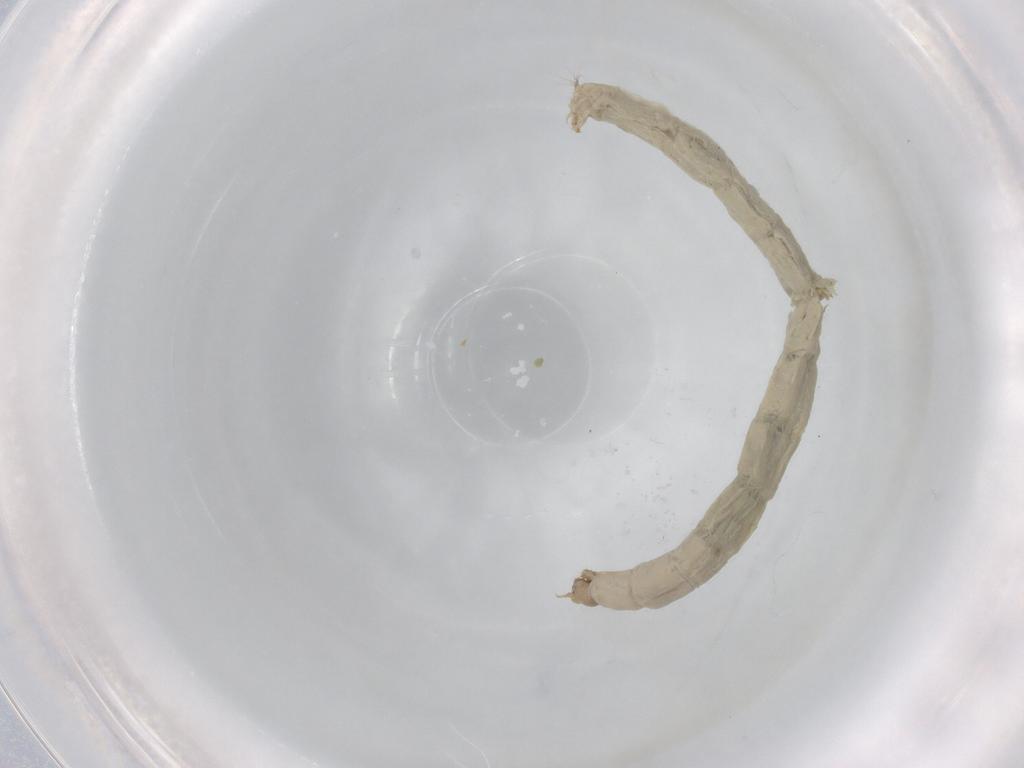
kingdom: Animalia
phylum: Arthropoda
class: Insecta
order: Diptera
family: Chironomidae
